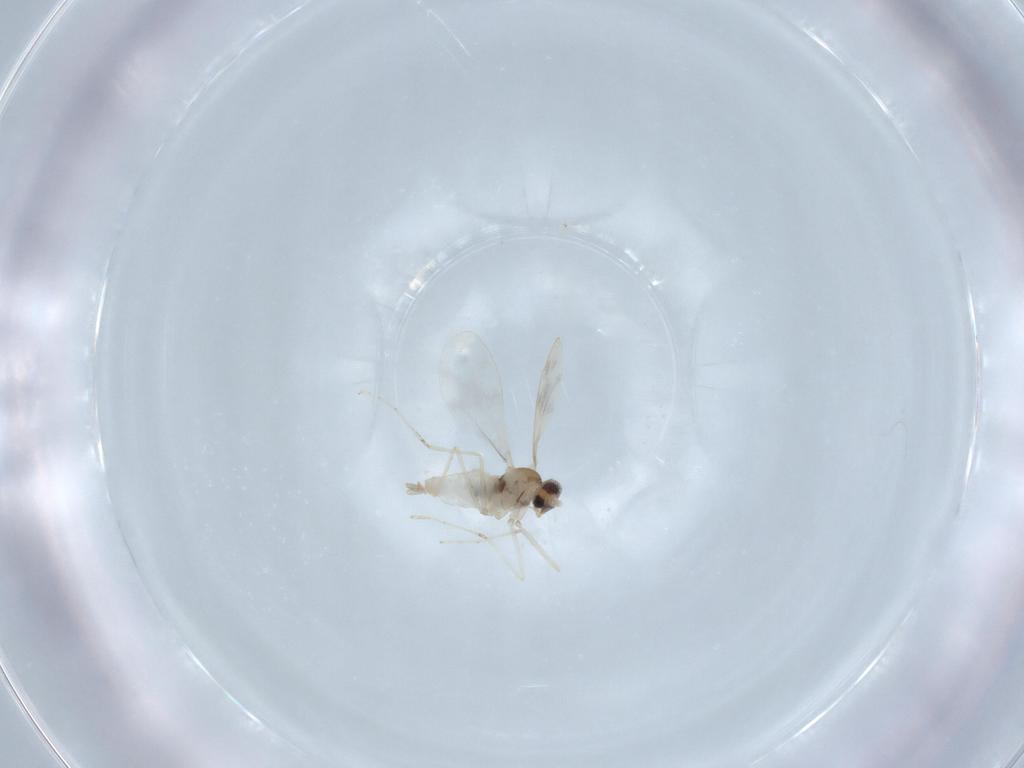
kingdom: Animalia
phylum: Arthropoda
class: Insecta
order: Diptera
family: Cecidomyiidae
